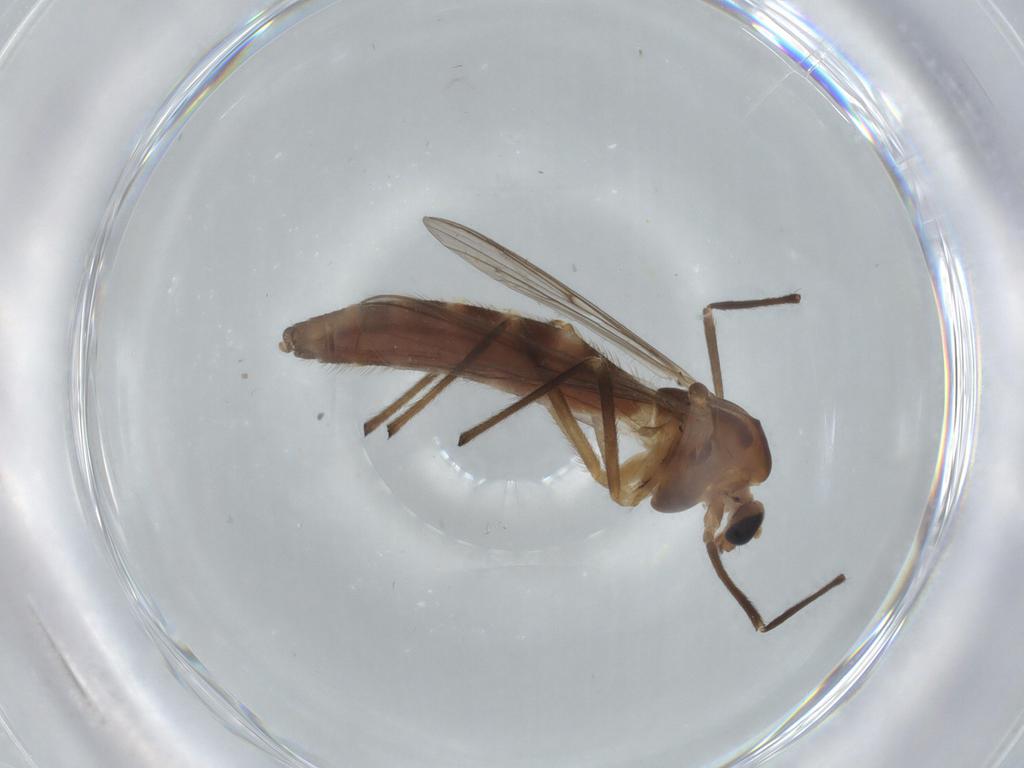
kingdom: Animalia
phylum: Arthropoda
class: Insecta
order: Diptera
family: Chironomidae
